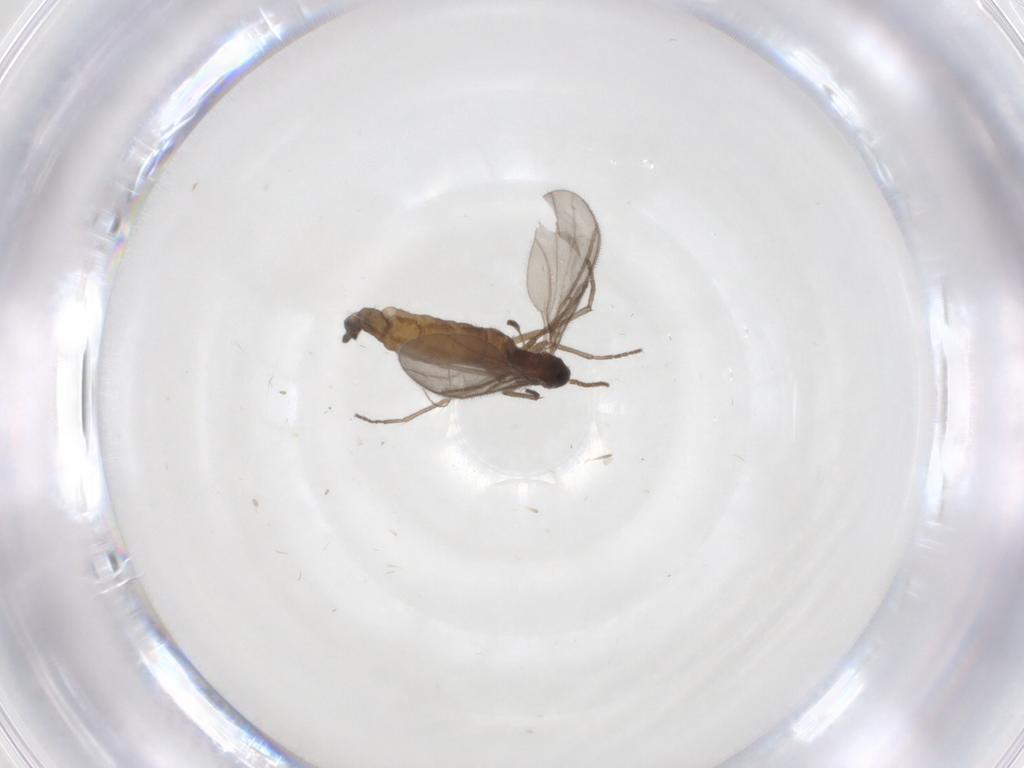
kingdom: Animalia
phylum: Arthropoda
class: Insecta
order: Diptera
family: Sciaridae
